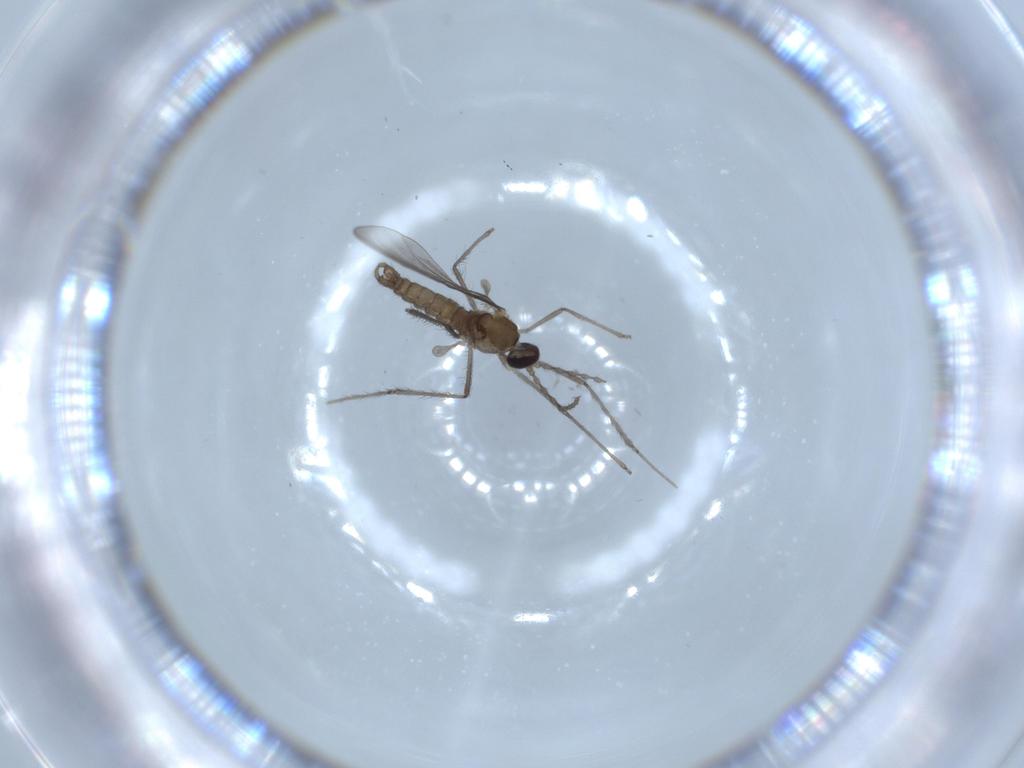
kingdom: Animalia
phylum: Arthropoda
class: Insecta
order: Diptera
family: Cecidomyiidae
